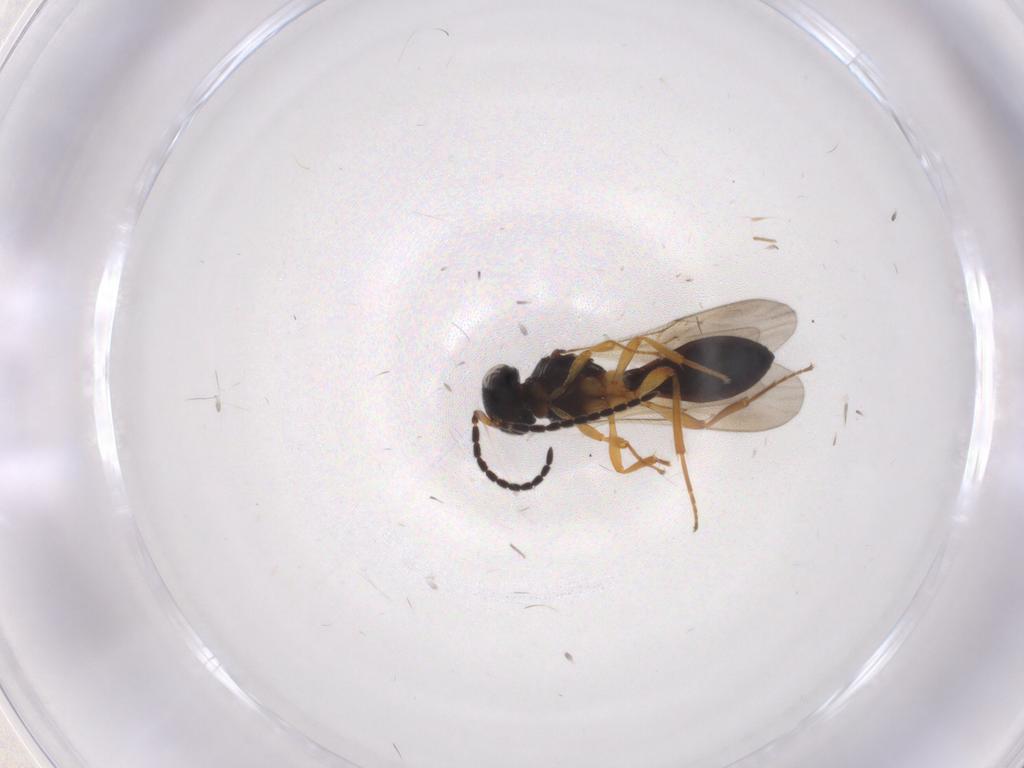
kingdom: Animalia
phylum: Arthropoda
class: Insecta
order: Hymenoptera
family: Scelionidae
